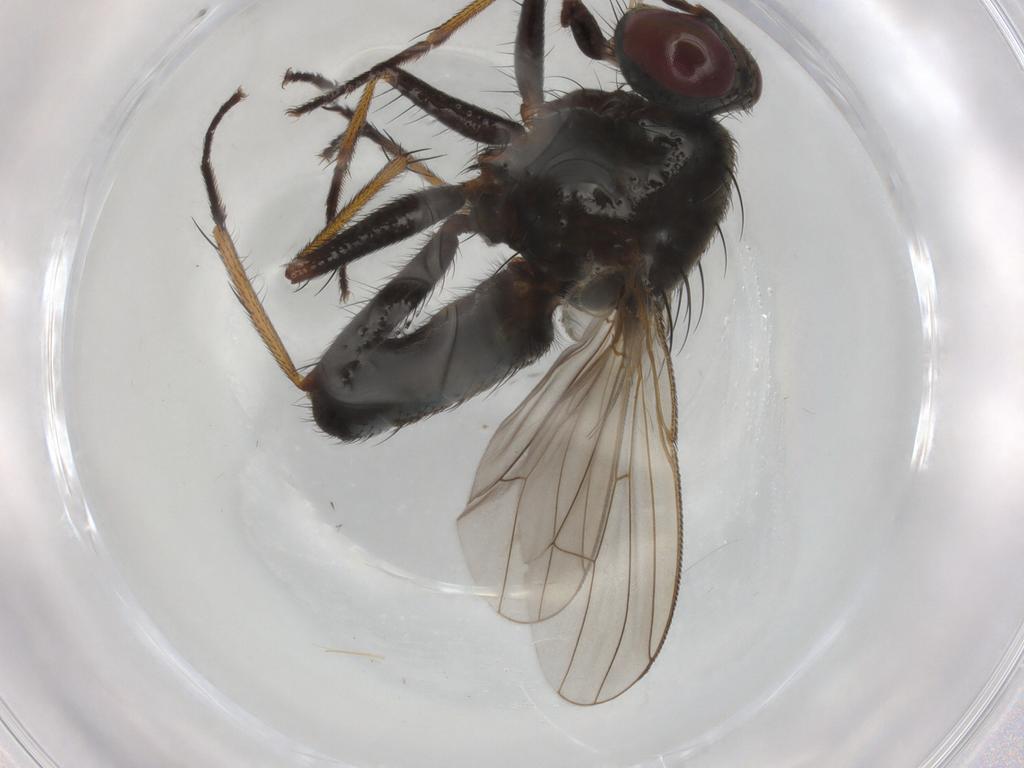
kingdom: Animalia
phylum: Arthropoda
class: Insecta
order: Diptera
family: Muscidae
